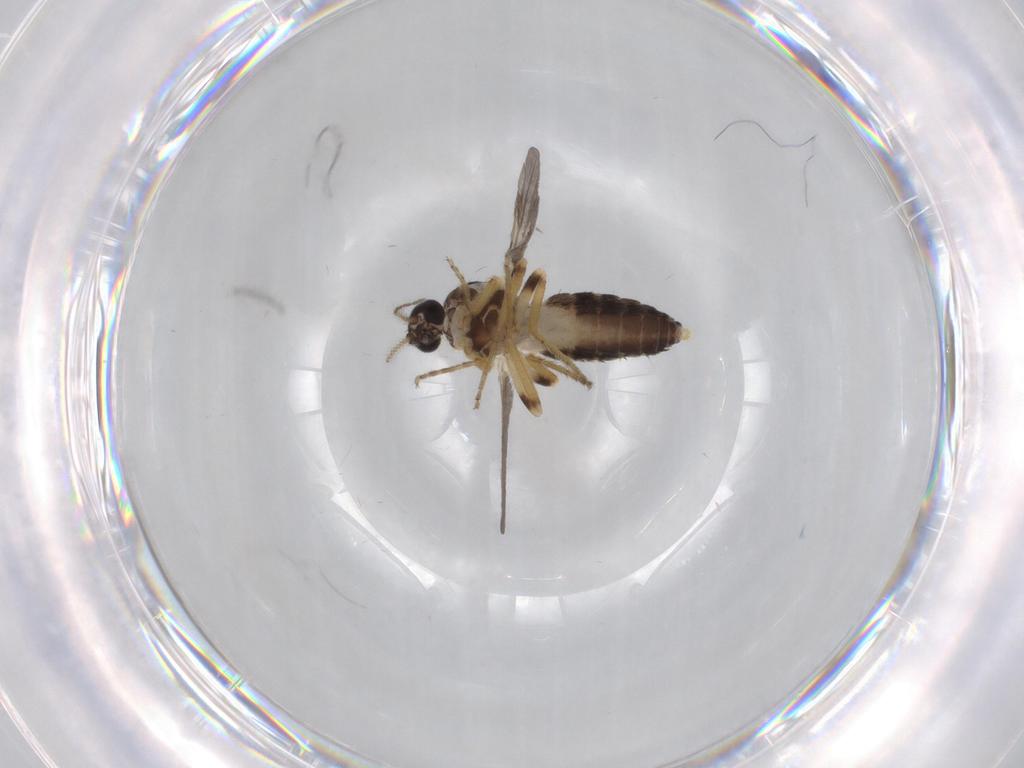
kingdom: Animalia
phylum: Arthropoda
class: Insecta
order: Diptera
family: Ceratopogonidae
